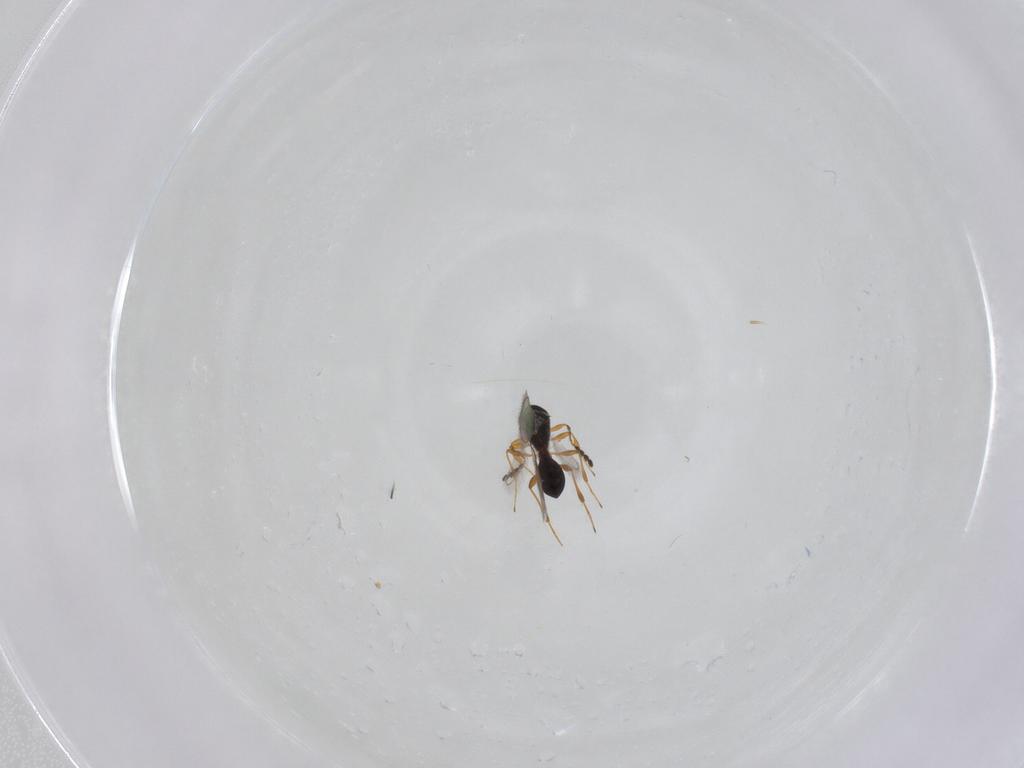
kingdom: Animalia
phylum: Arthropoda
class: Insecta
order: Hymenoptera
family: Platygastridae
